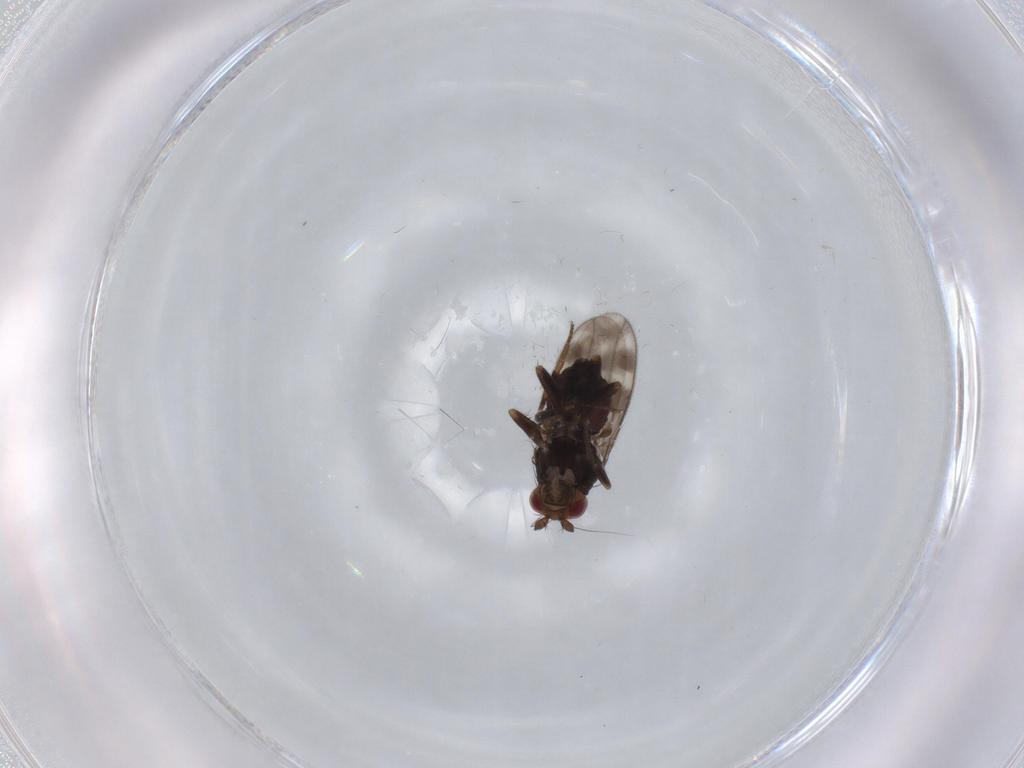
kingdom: Animalia
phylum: Arthropoda
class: Insecta
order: Diptera
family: Sphaeroceridae
